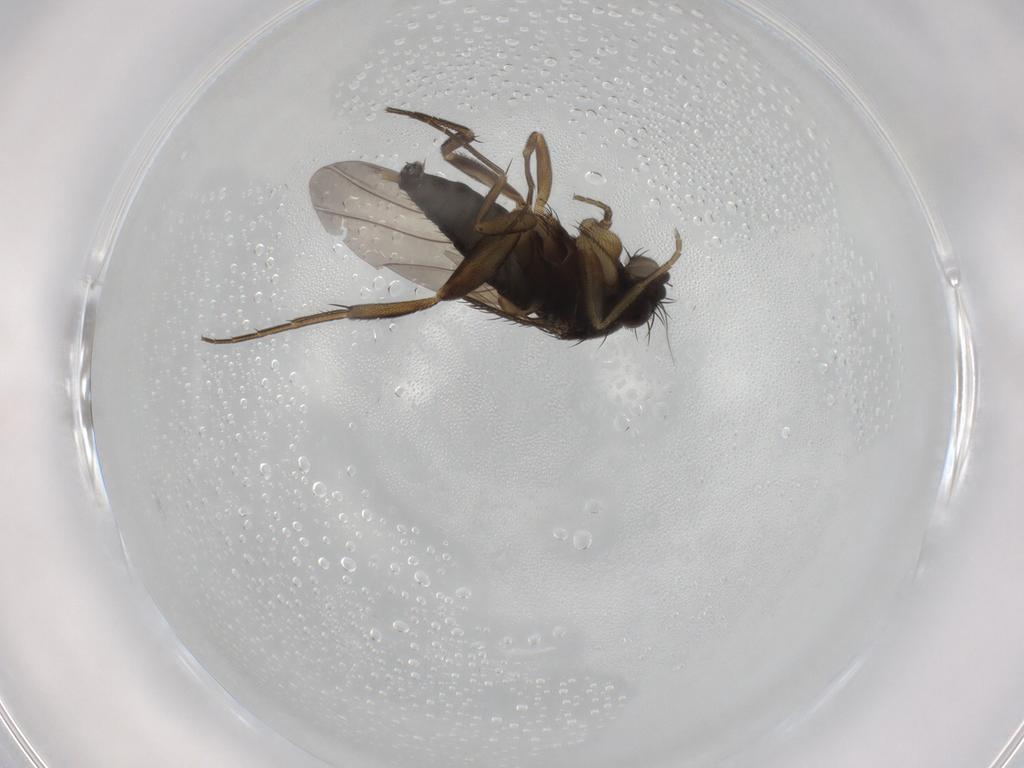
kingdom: Animalia
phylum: Arthropoda
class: Insecta
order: Diptera
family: Phoridae
